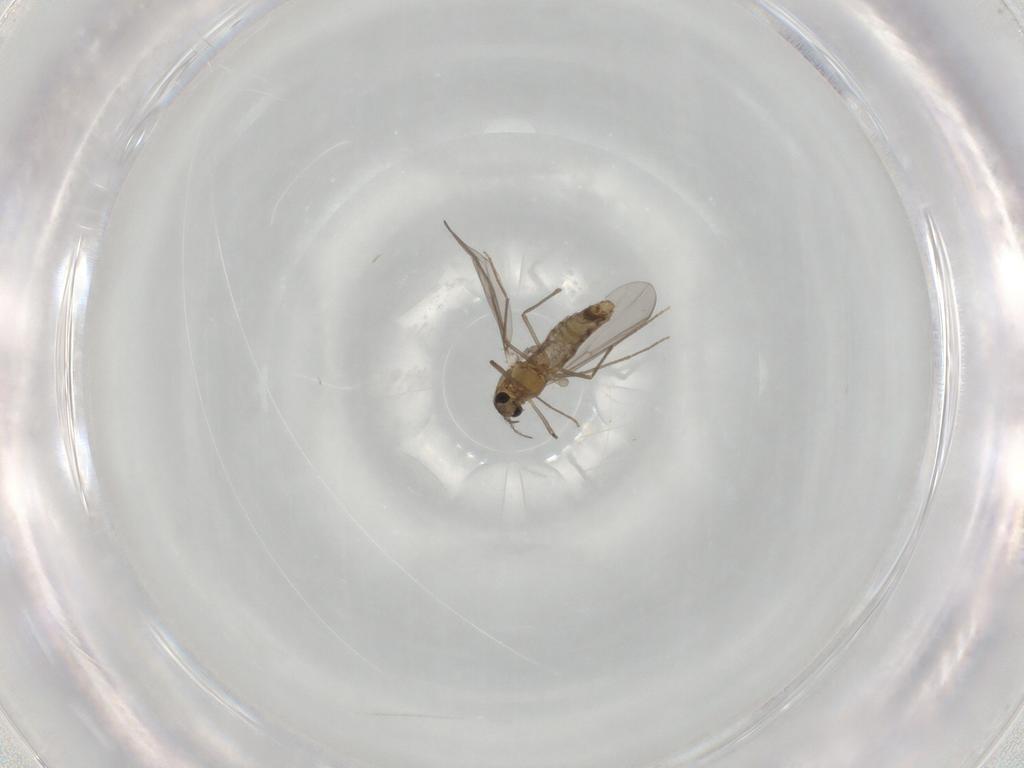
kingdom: Animalia
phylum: Arthropoda
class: Insecta
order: Diptera
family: Chironomidae
